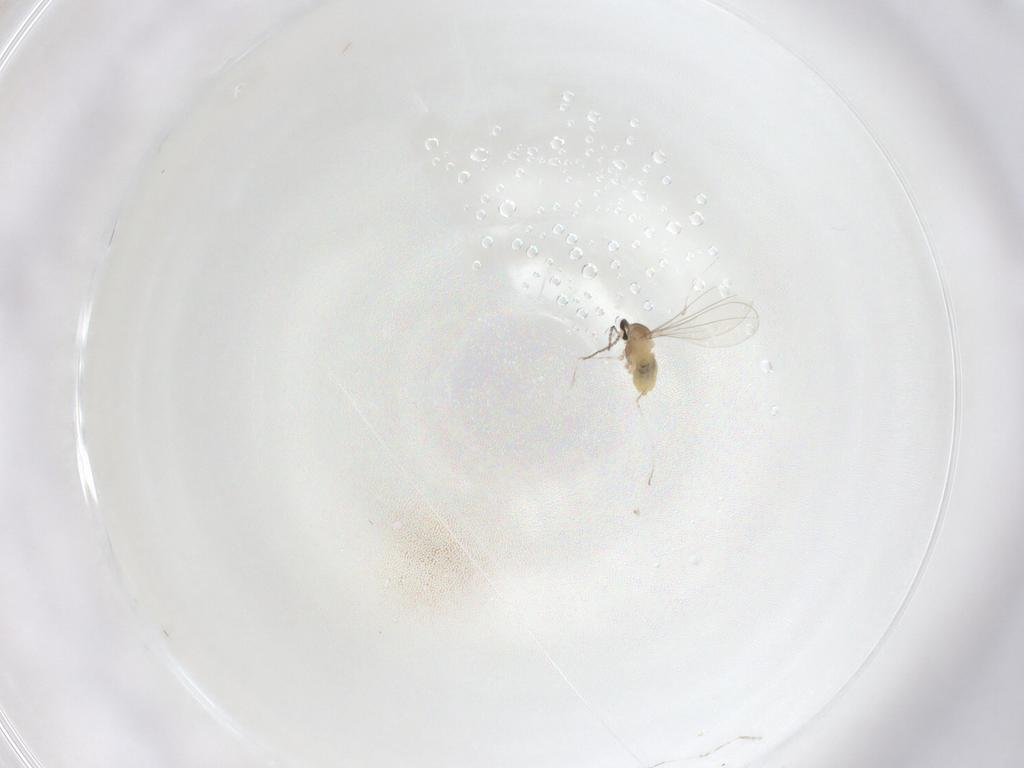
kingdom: Animalia
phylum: Arthropoda
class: Insecta
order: Diptera
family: Cecidomyiidae
